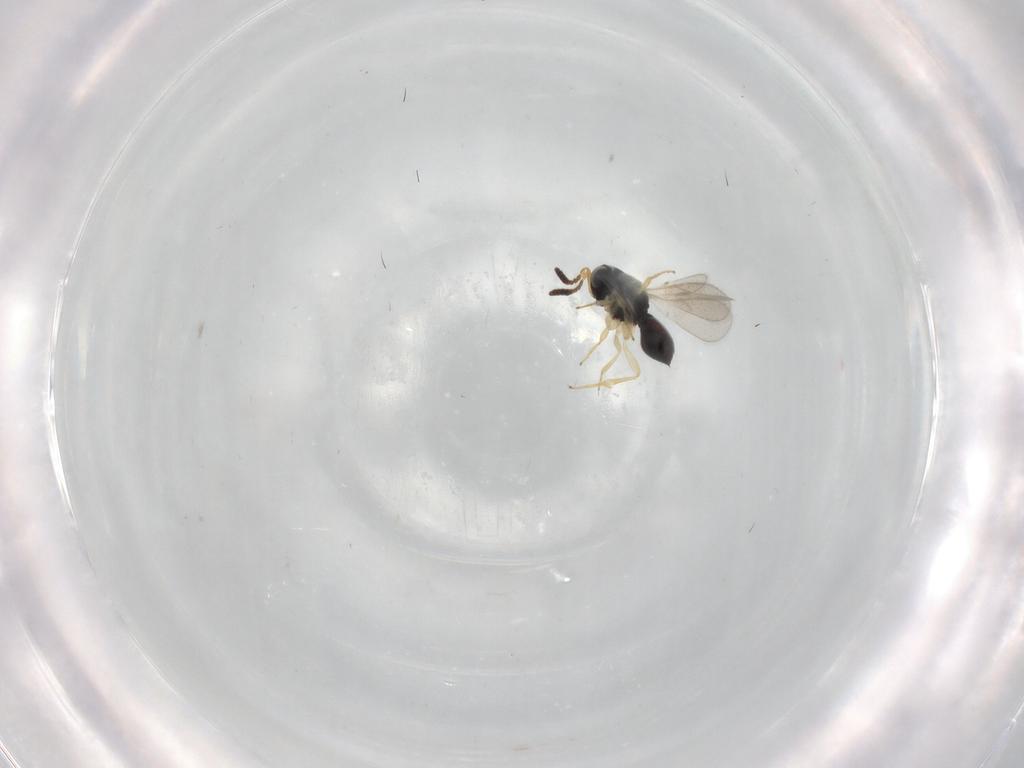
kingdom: Animalia
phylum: Arthropoda
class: Insecta
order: Hymenoptera
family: Scelionidae
